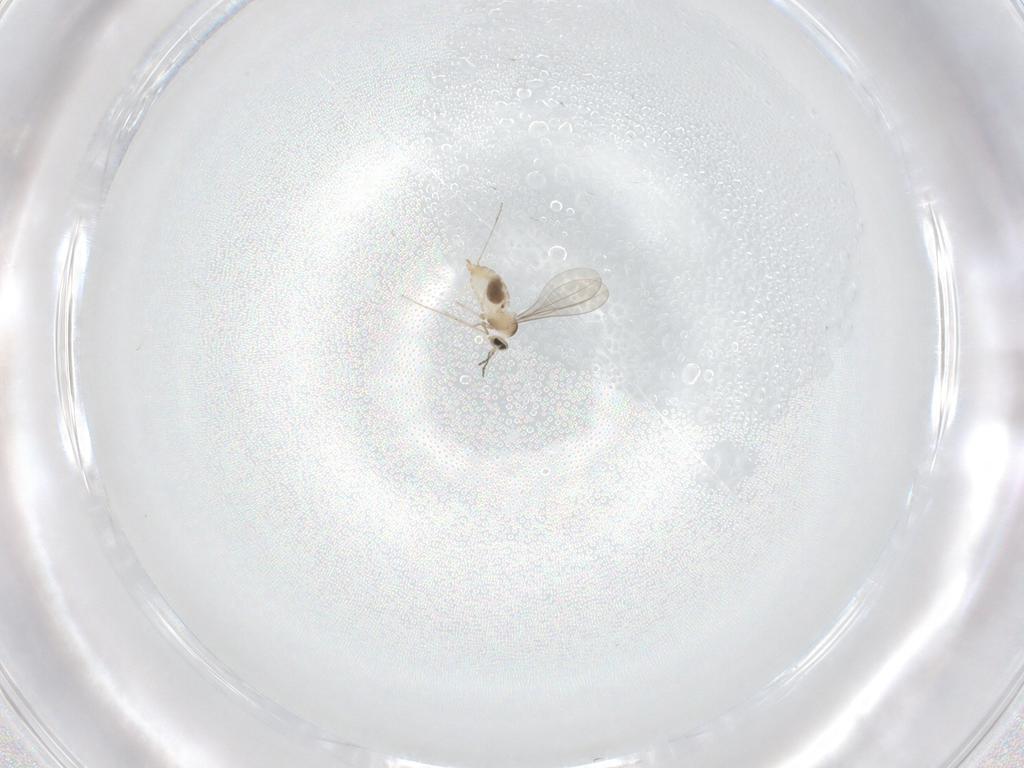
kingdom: Animalia
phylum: Arthropoda
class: Insecta
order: Diptera
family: Cecidomyiidae
